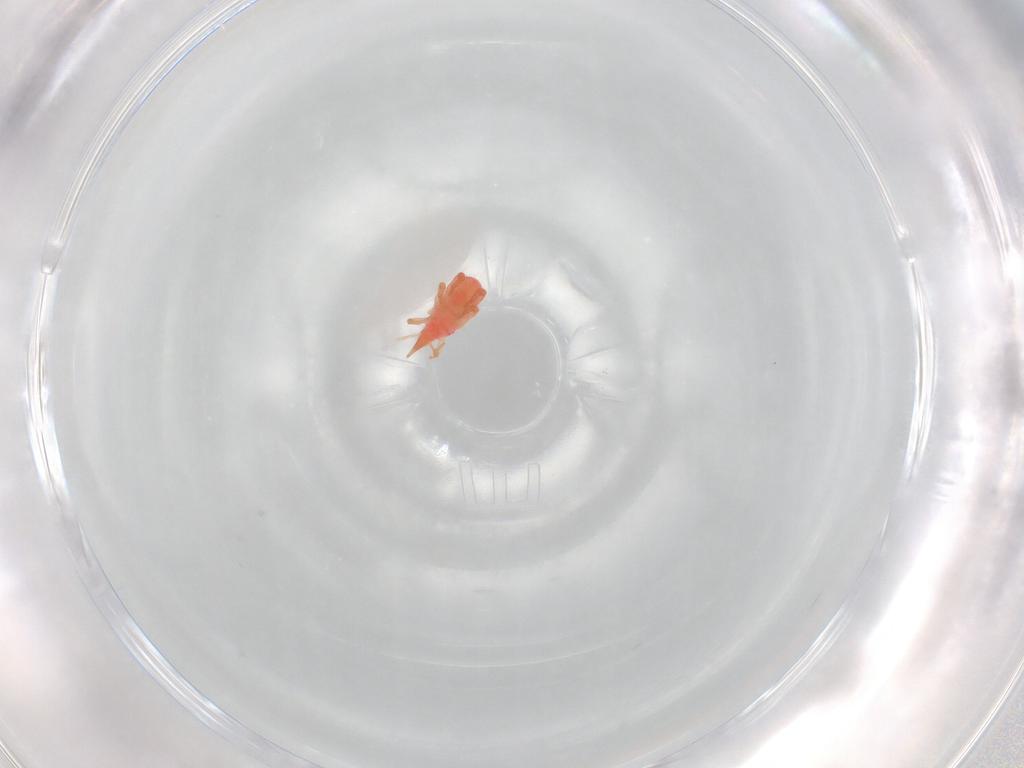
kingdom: Animalia
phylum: Arthropoda
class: Arachnida
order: Trombidiformes
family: Bdellidae
